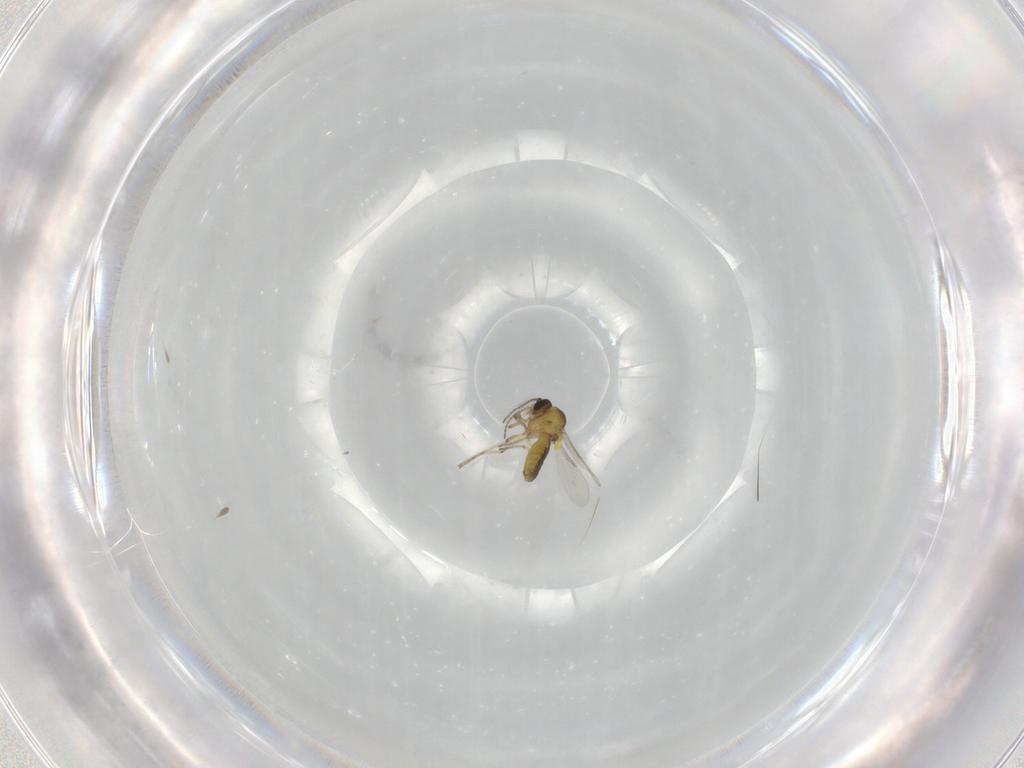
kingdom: Animalia
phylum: Arthropoda
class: Insecta
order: Diptera
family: Ceratopogonidae
